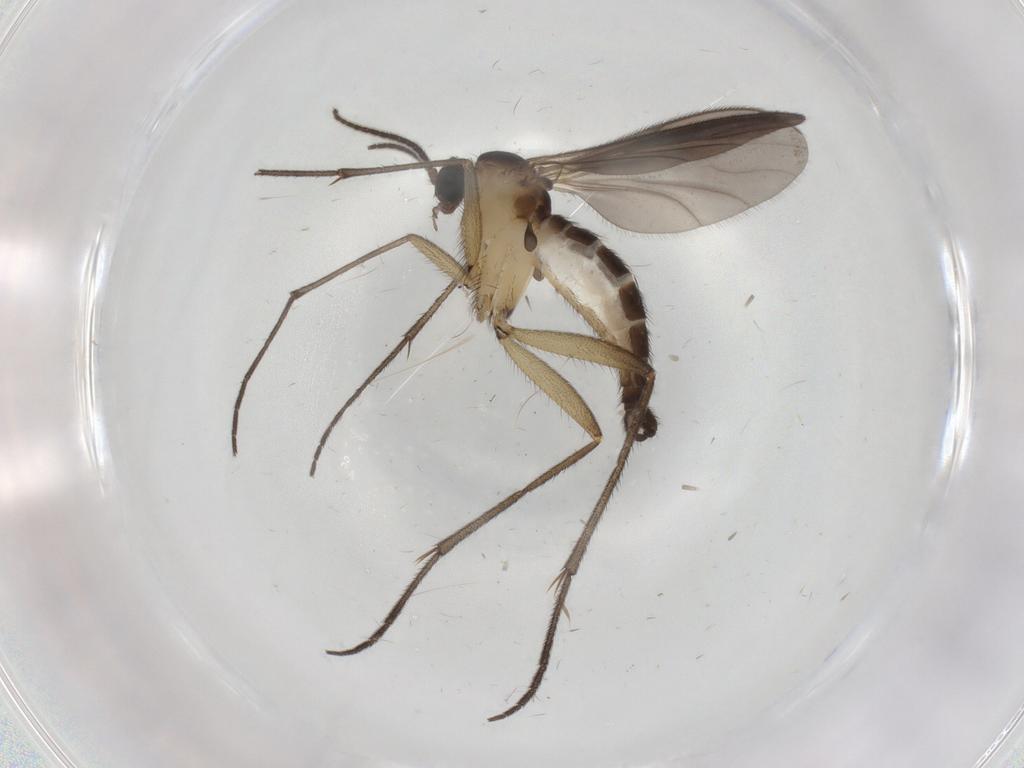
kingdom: Animalia
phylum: Arthropoda
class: Insecta
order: Diptera
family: Sciaridae
